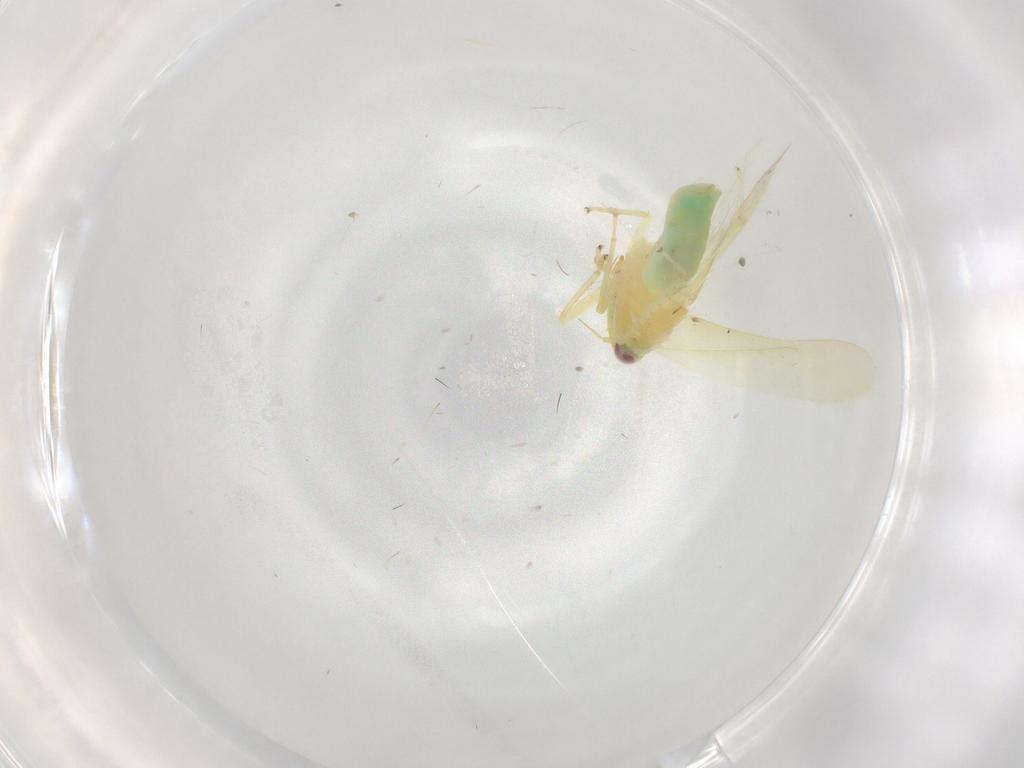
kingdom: Animalia
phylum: Arthropoda
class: Insecta
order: Hemiptera
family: Cicadellidae
